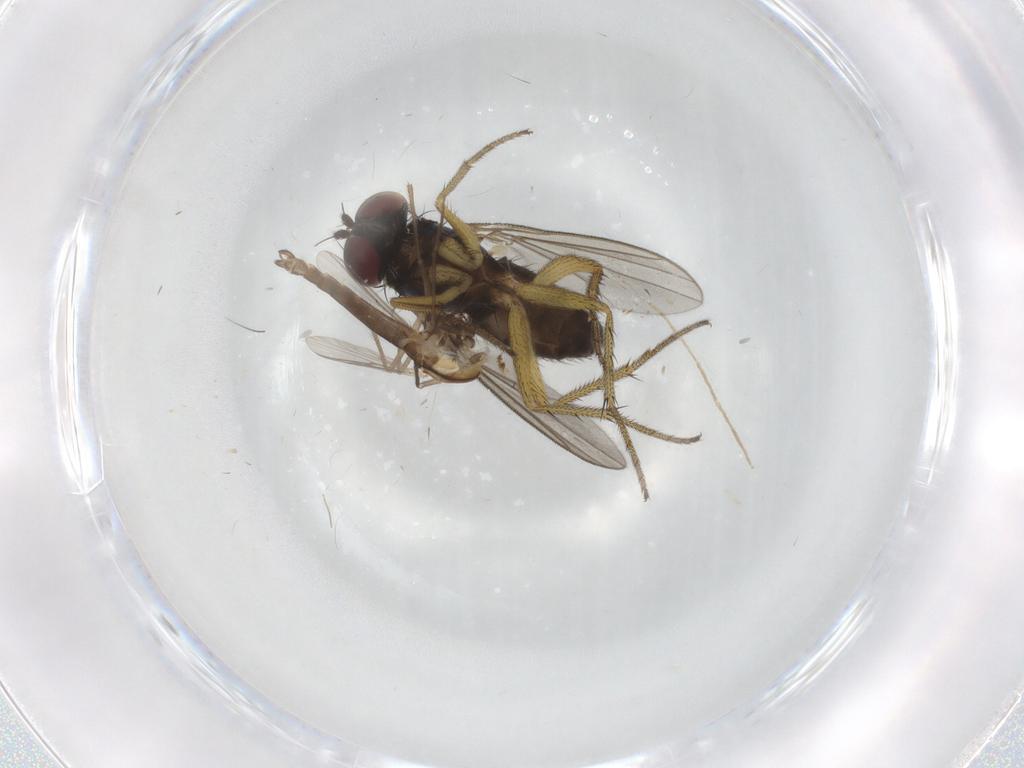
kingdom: Animalia
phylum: Arthropoda
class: Insecta
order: Diptera
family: Chironomidae
